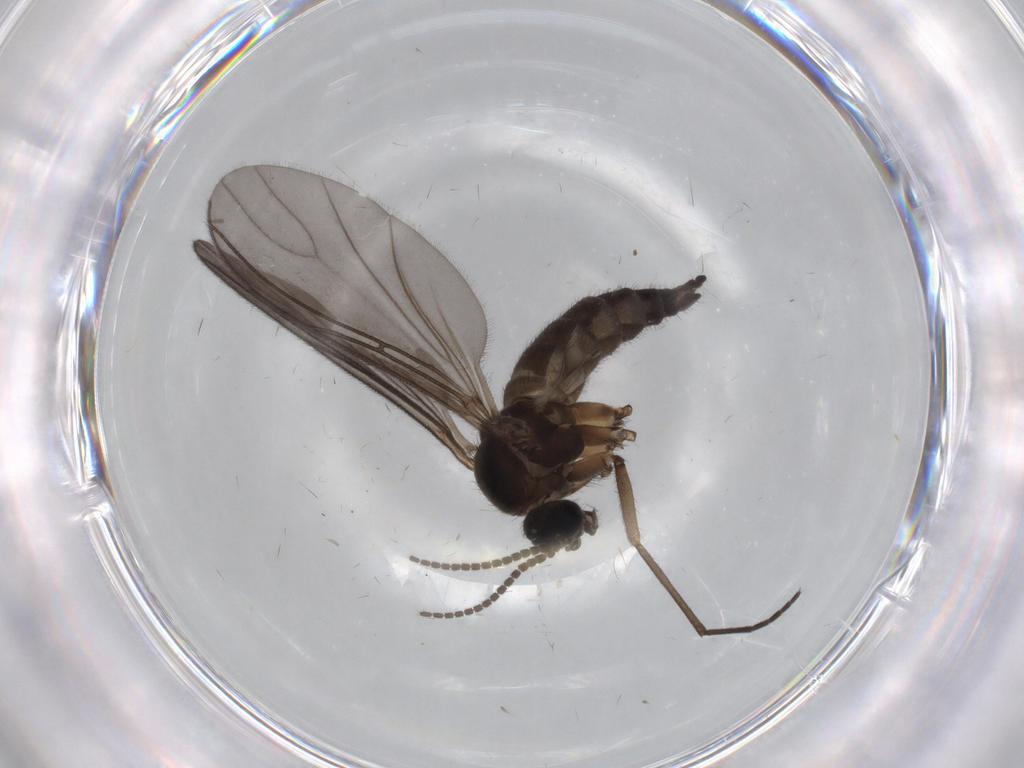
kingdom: Animalia
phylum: Arthropoda
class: Insecta
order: Diptera
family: Sciaridae
